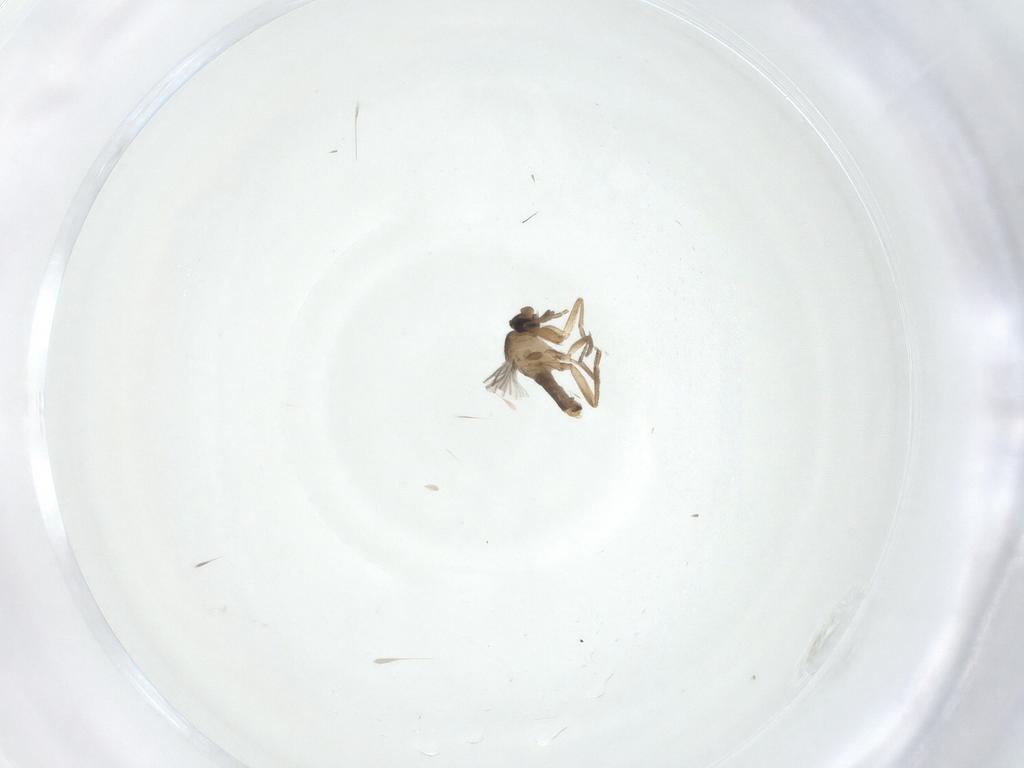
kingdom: Animalia
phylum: Arthropoda
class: Insecta
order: Diptera
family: Phoridae
